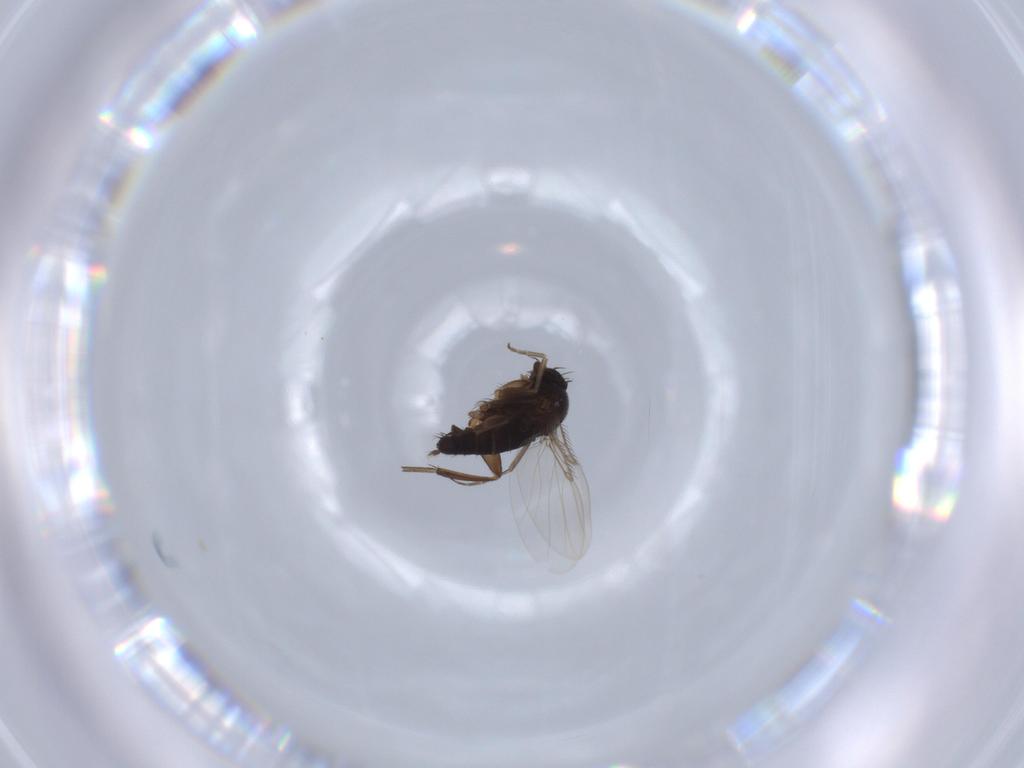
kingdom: Animalia
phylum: Arthropoda
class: Insecta
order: Diptera
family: Phoridae
